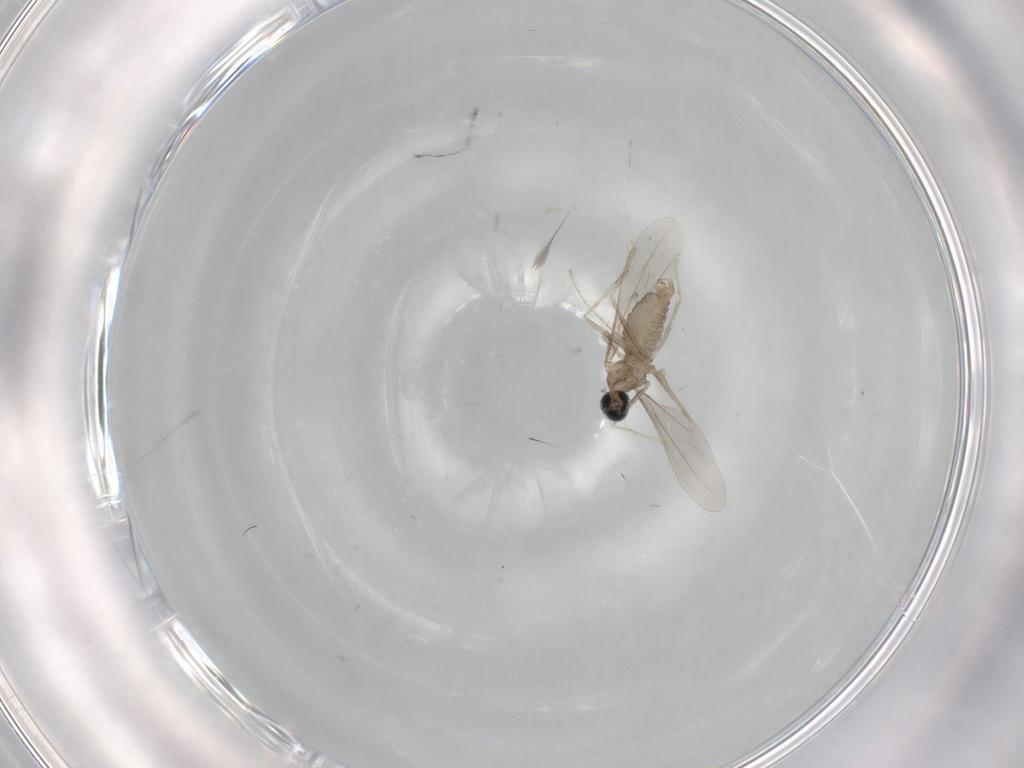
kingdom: Animalia
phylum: Arthropoda
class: Insecta
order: Diptera
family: Cecidomyiidae
